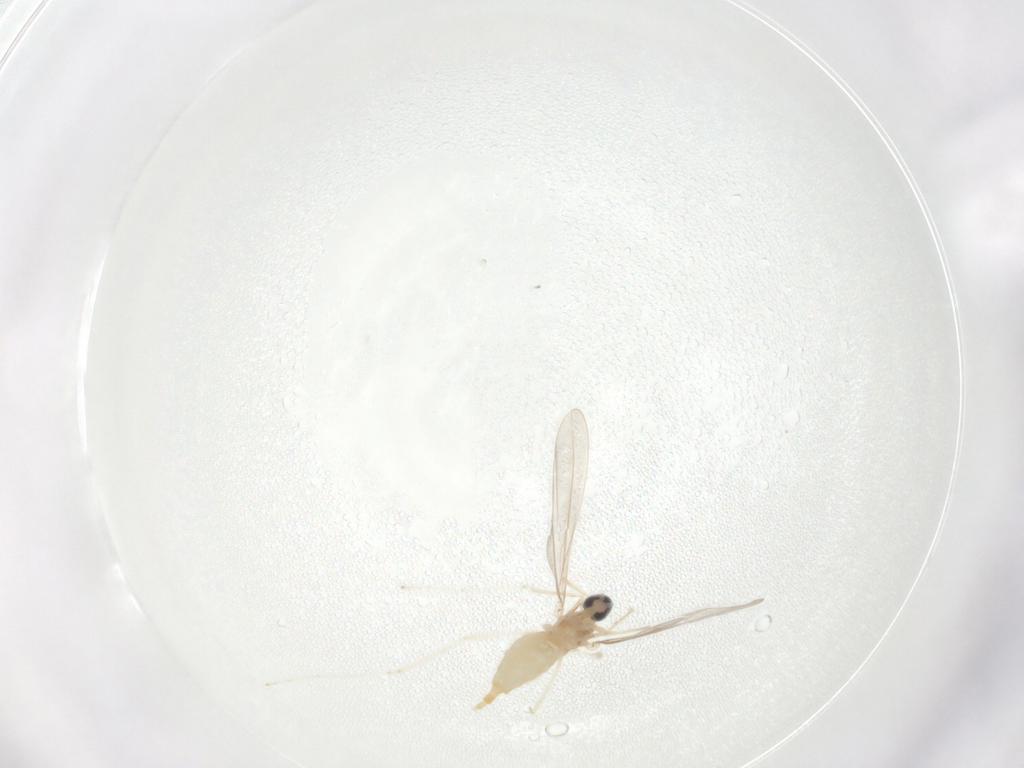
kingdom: Animalia
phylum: Arthropoda
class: Insecta
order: Diptera
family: Cecidomyiidae
